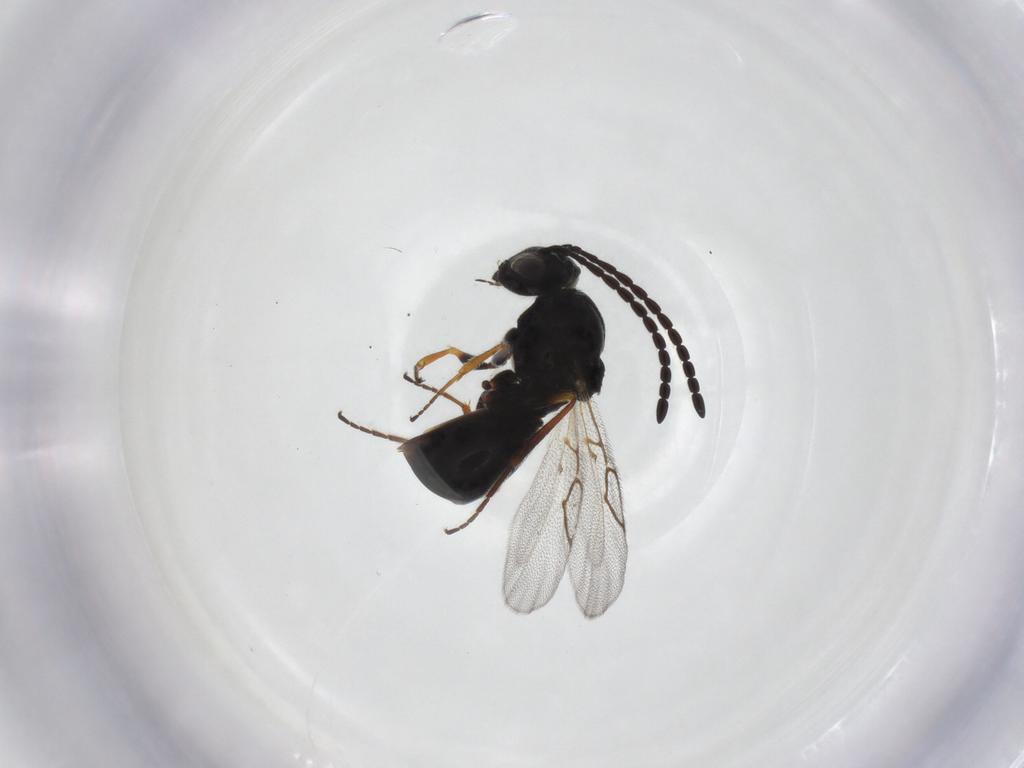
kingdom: Animalia
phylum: Arthropoda
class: Insecta
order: Hymenoptera
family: Figitidae
